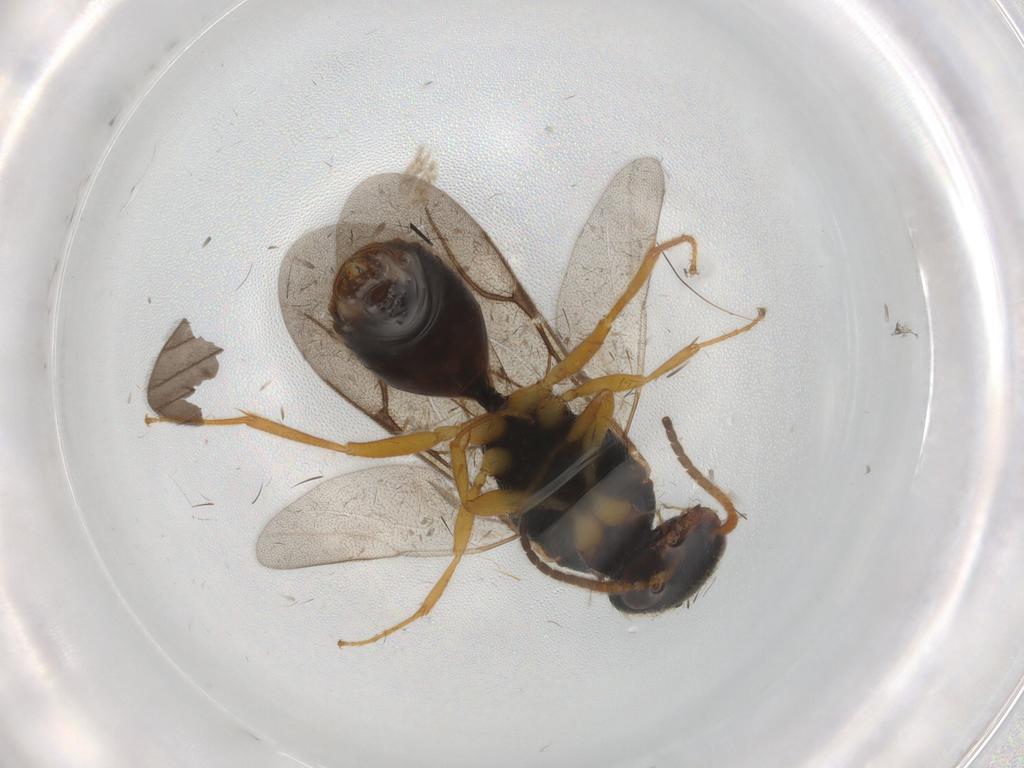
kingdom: Animalia
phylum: Arthropoda
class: Insecta
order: Hymenoptera
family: Bethylidae
